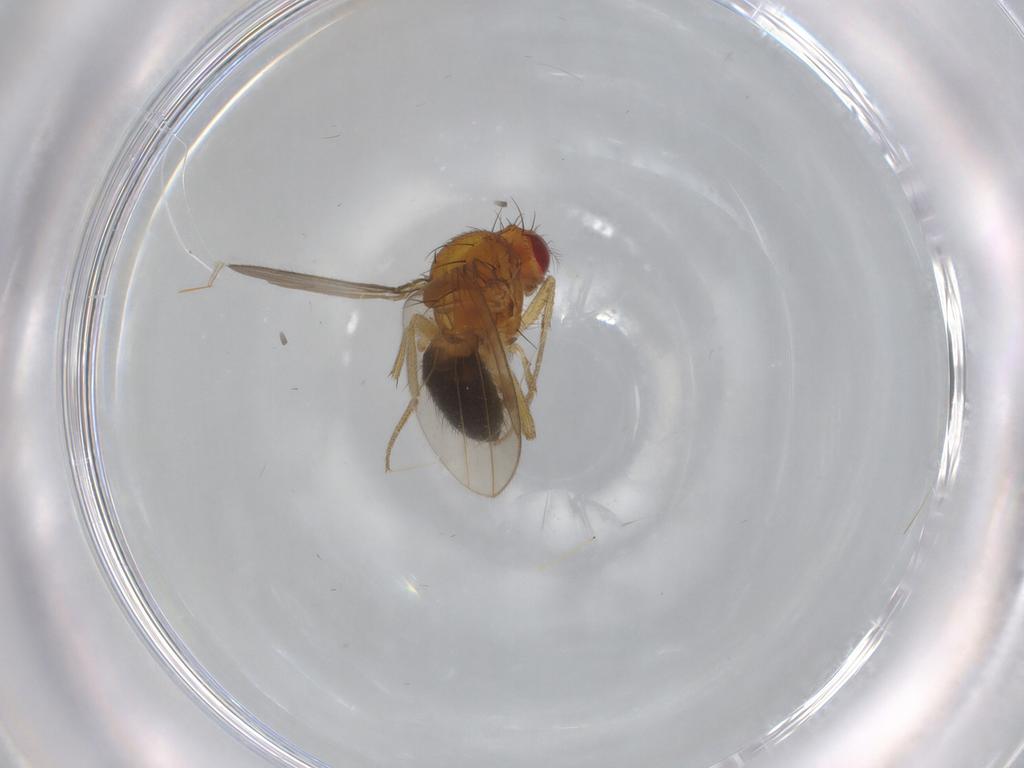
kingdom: Animalia
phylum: Arthropoda
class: Insecta
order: Diptera
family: Drosophilidae
